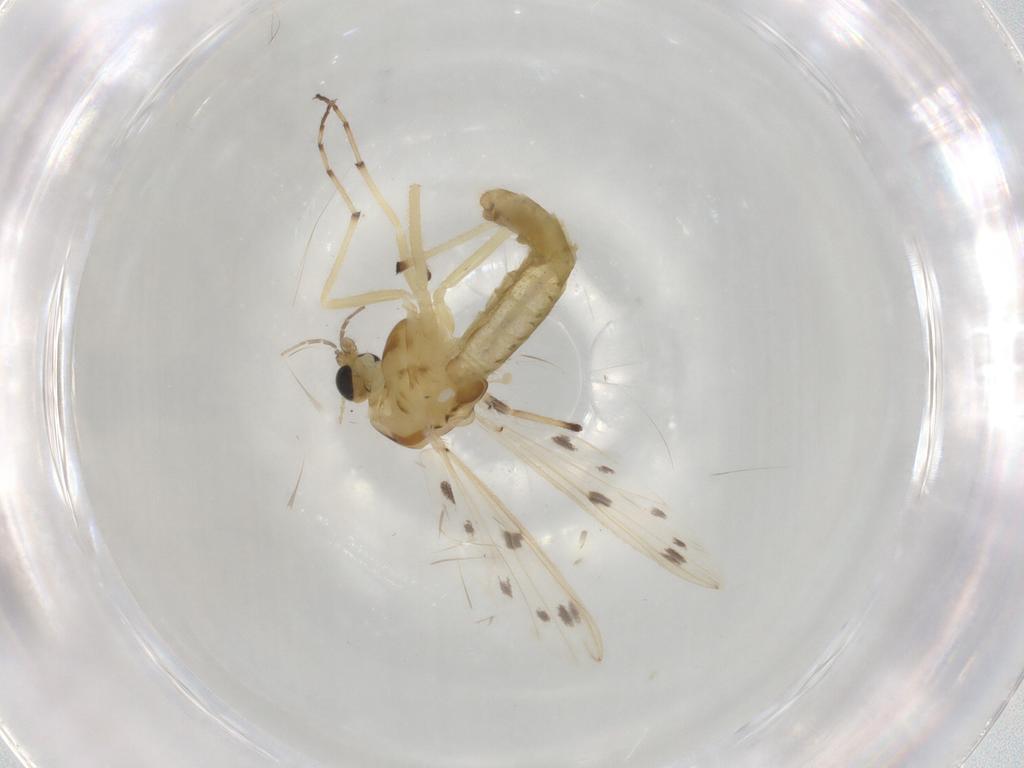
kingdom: Animalia
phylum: Arthropoda
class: Insecta
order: Diptera
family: Chironomidae
